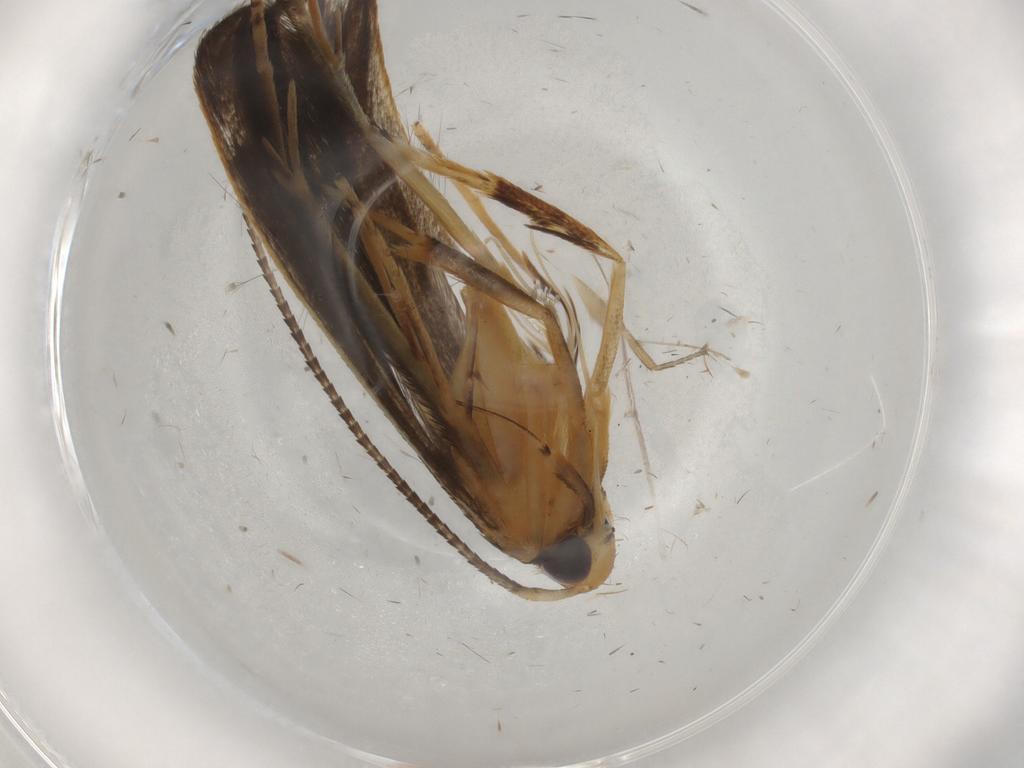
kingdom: Animalia
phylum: Arthropoda
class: Insecta
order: Lepidoptera
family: Pterolonchidae
